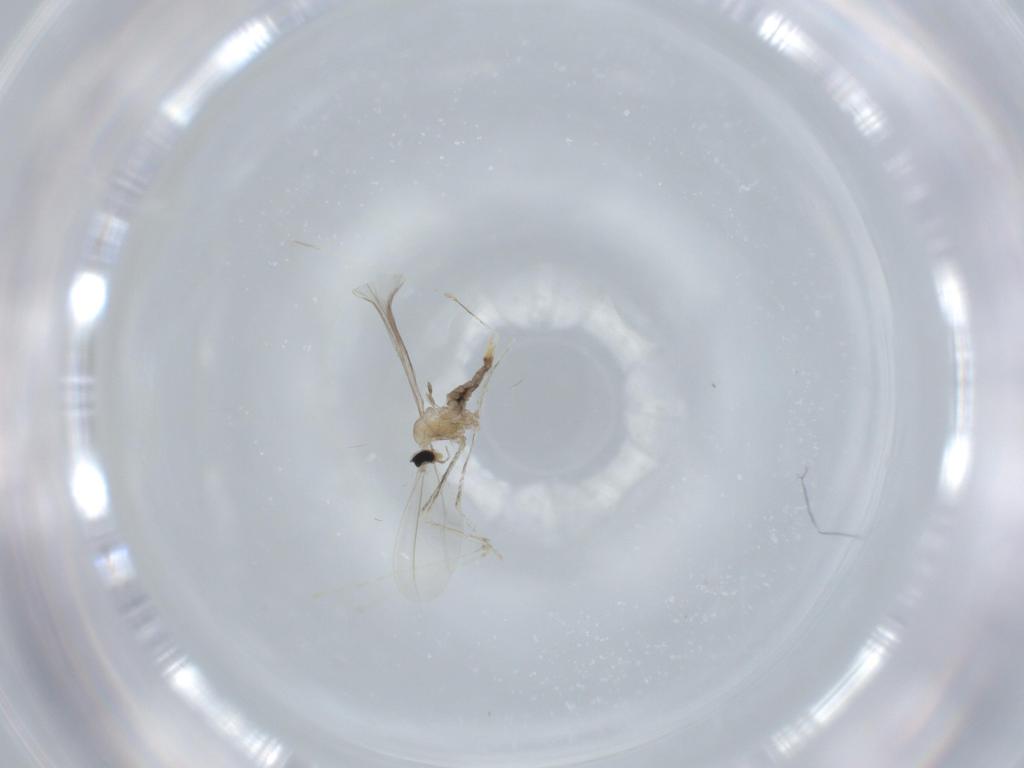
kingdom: Animalia
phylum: Arthropoda
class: Insecta
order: Diptera
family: Cecidomyiidae
